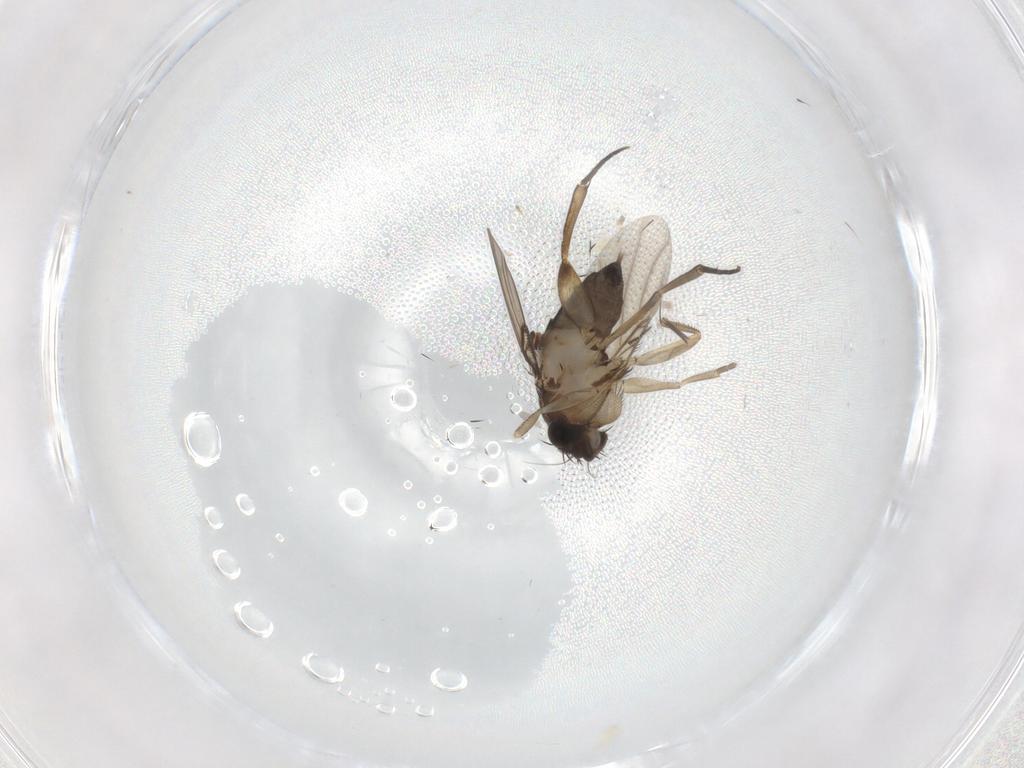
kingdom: Animalia
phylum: Arthropoda
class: Insecta
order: Diptera
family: Phoridae
